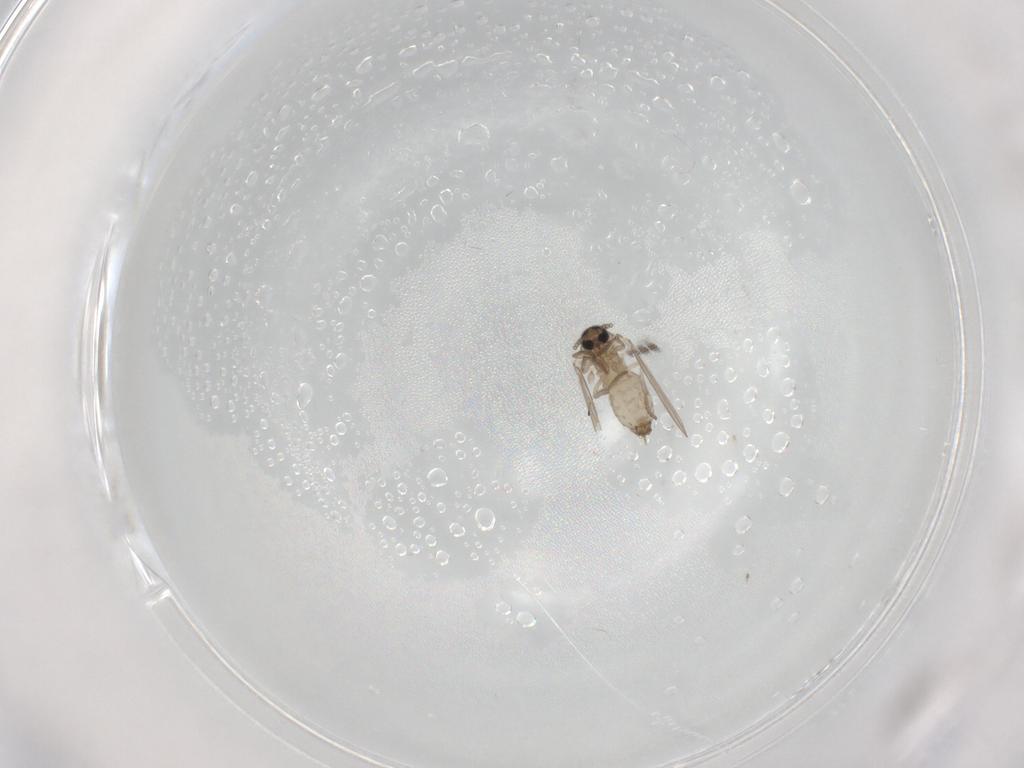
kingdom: Animalia
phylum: Arthropoda
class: Insecta
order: Diptera
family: Psychodidae
